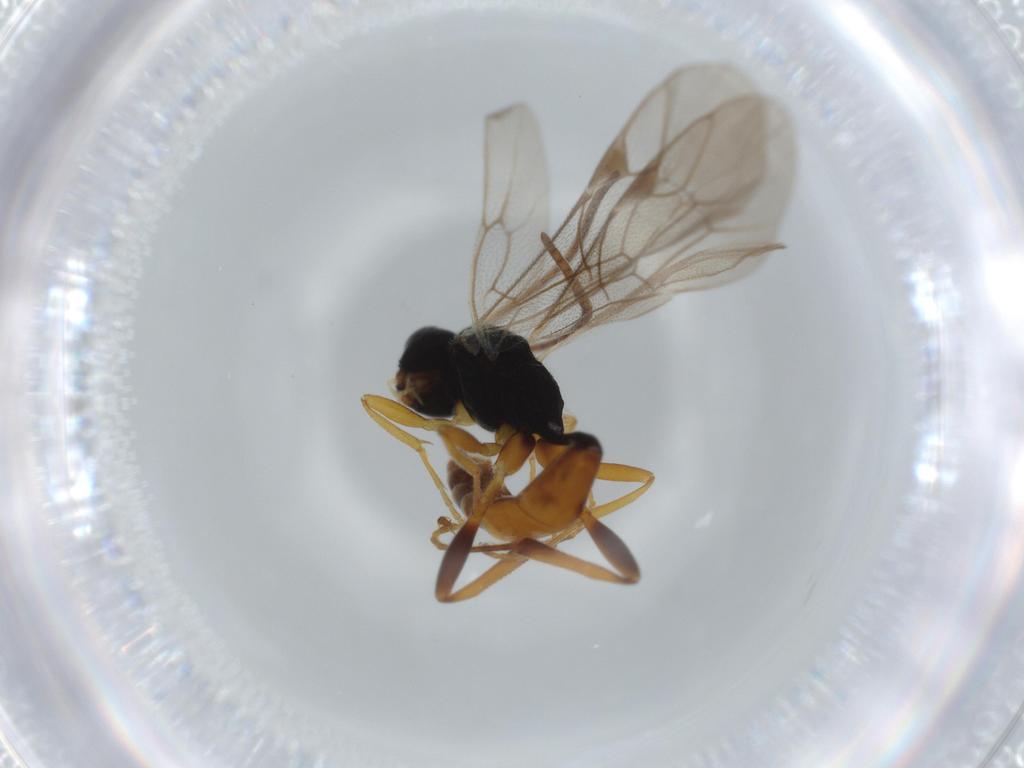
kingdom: Animalia
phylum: Arthropoda
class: Insecta
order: Hymenoptera
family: Ichneumonidae
